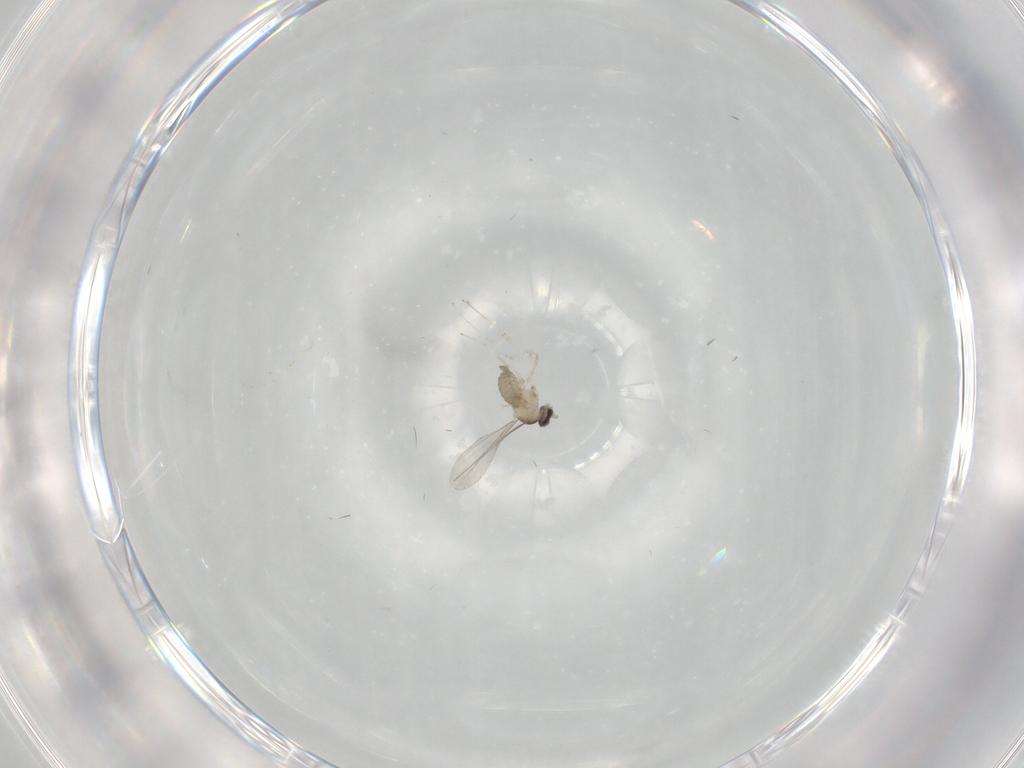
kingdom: Animalia
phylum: Arthropoda
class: Insecta
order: Diptera
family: Cecidomyiidae
